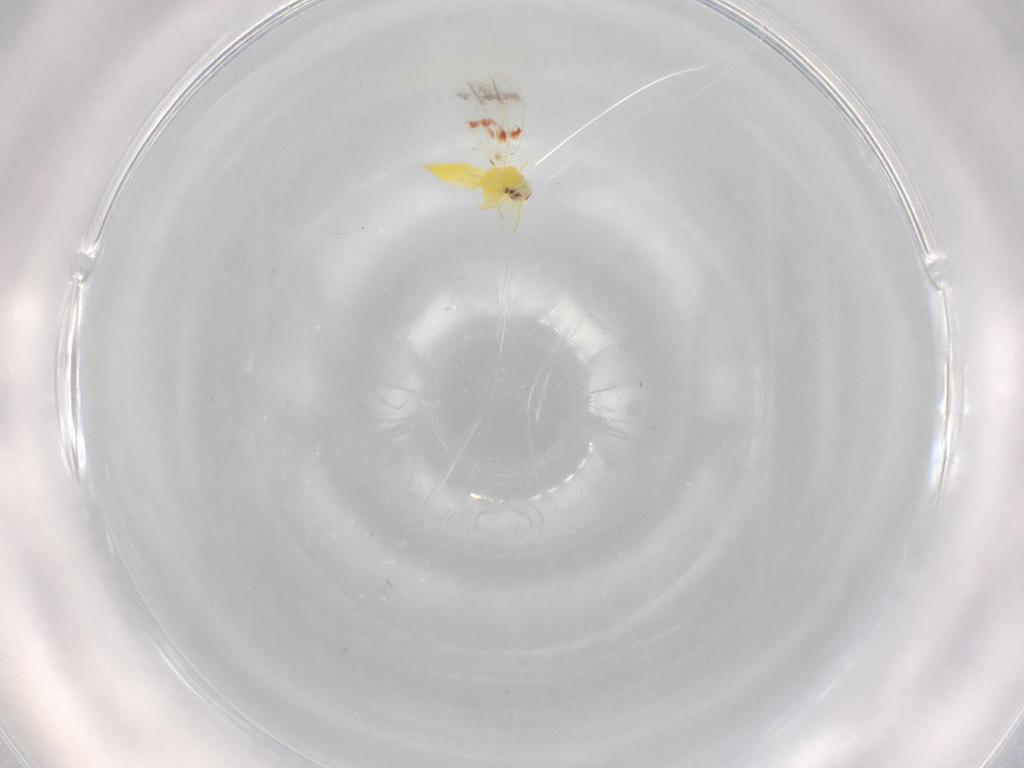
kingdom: Animalia
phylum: Arthropoda
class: Insecta
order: Hemiptera
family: Aleyrodidae
